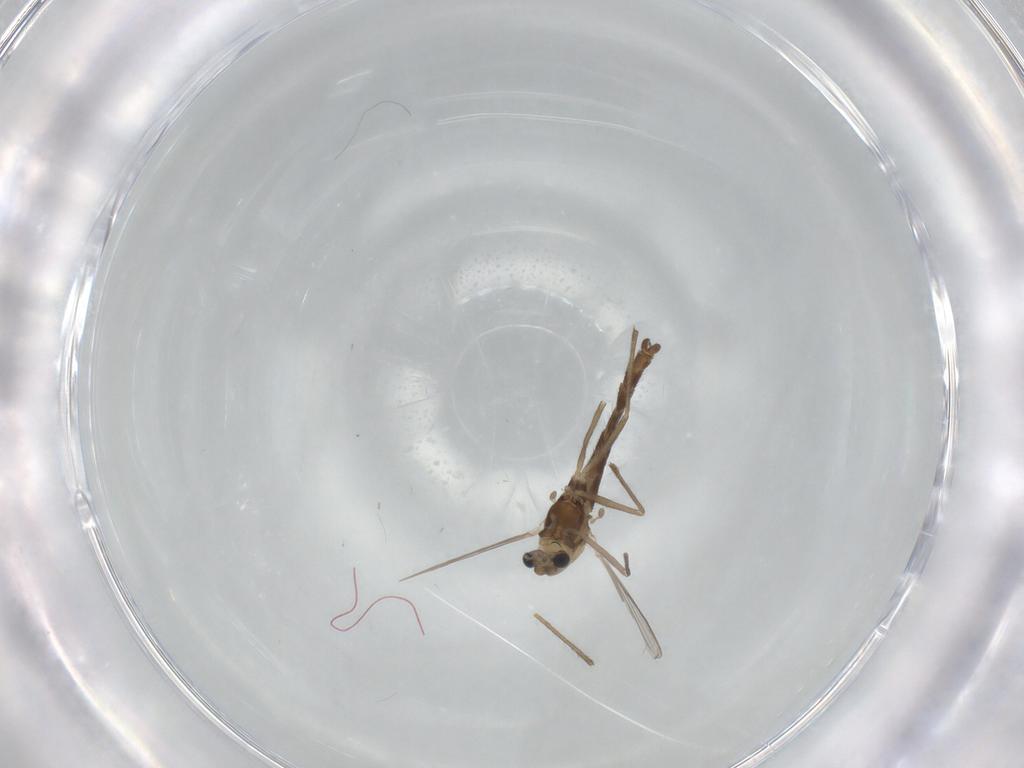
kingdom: Animalia
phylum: Arthropoda
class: Insecta
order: Diptera
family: Chironomidae
